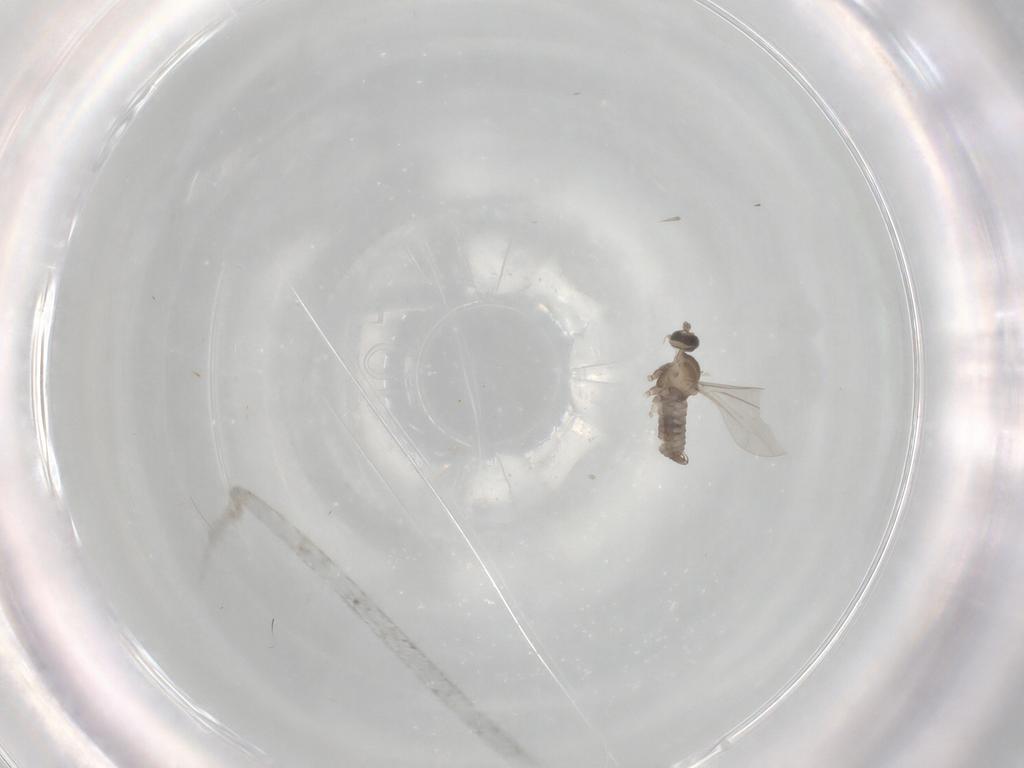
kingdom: Animalia
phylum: Arthropoda
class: Insecta
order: Diptera
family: Cecidomyiidae
